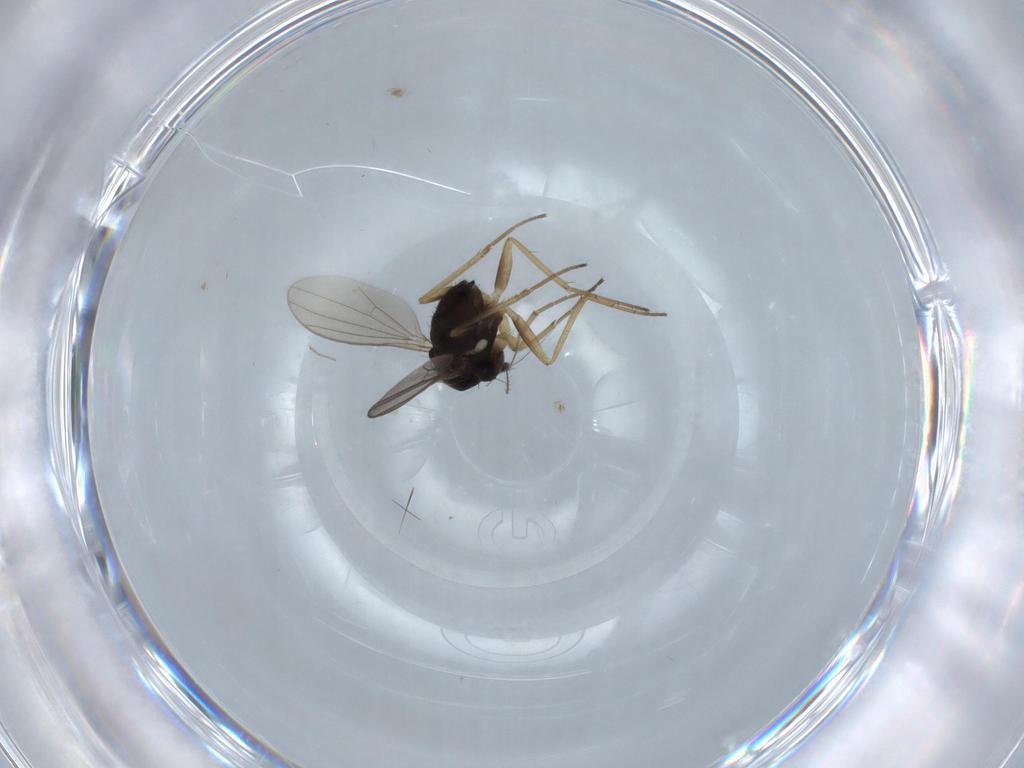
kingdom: Animalia
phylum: Arthropoda
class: Insecta
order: Diptera
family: Dolichopodidae
